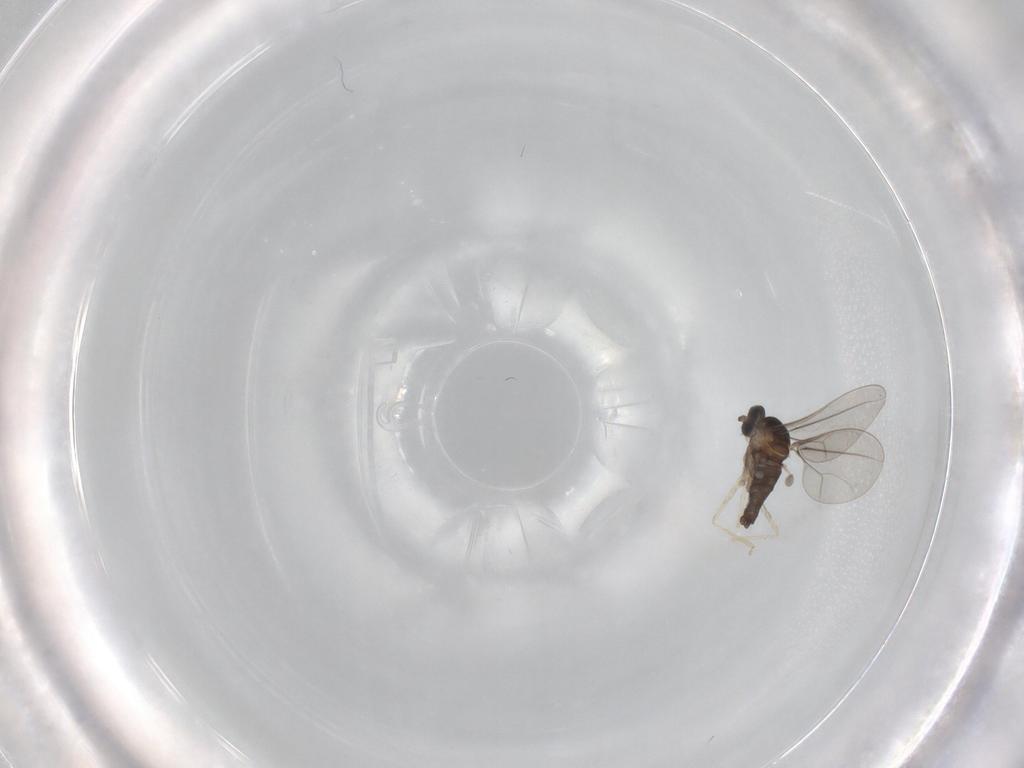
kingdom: Animalia
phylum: Arthropoda
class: Insecta
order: Diptera
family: Cecidomyiidae
